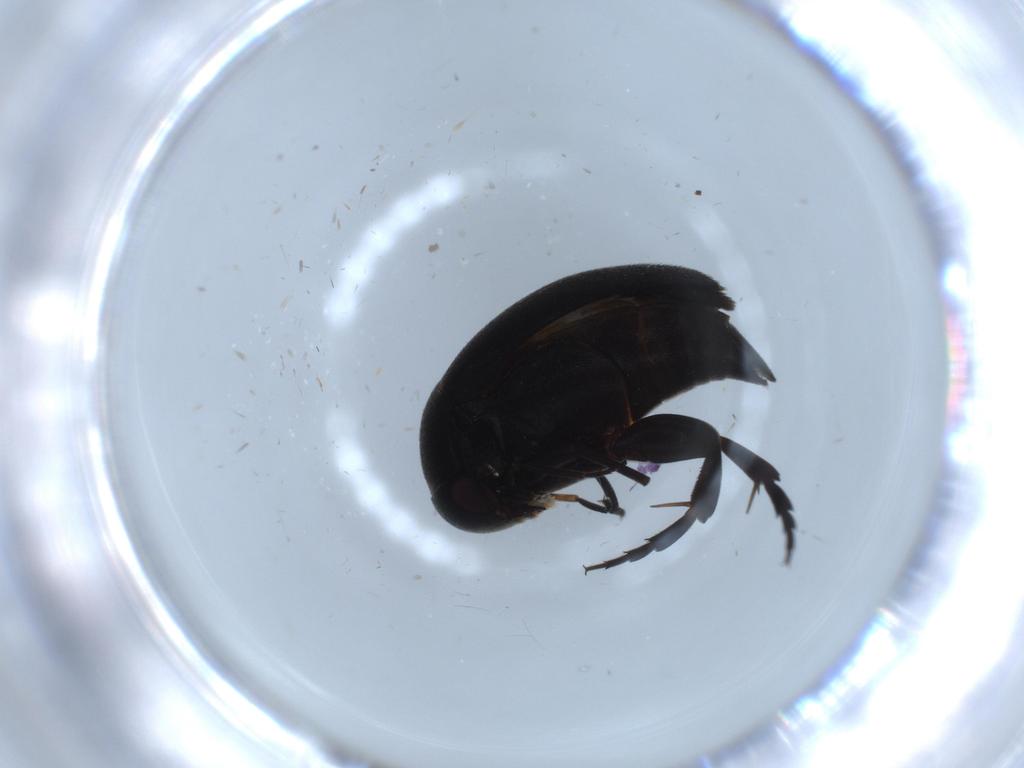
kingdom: Animalia
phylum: Arthropoda
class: Insecta
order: Coleoptera
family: Cantharidae
